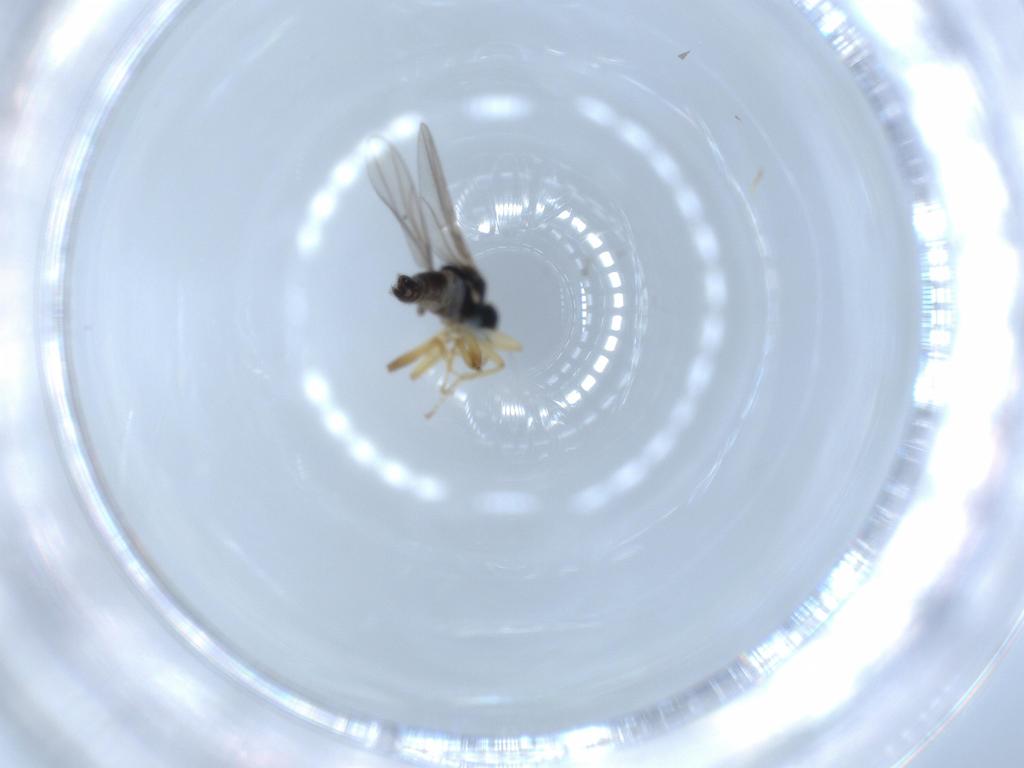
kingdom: Animalia
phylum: Arthropoda
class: Insecta
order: Diptera
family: Hybotidae
